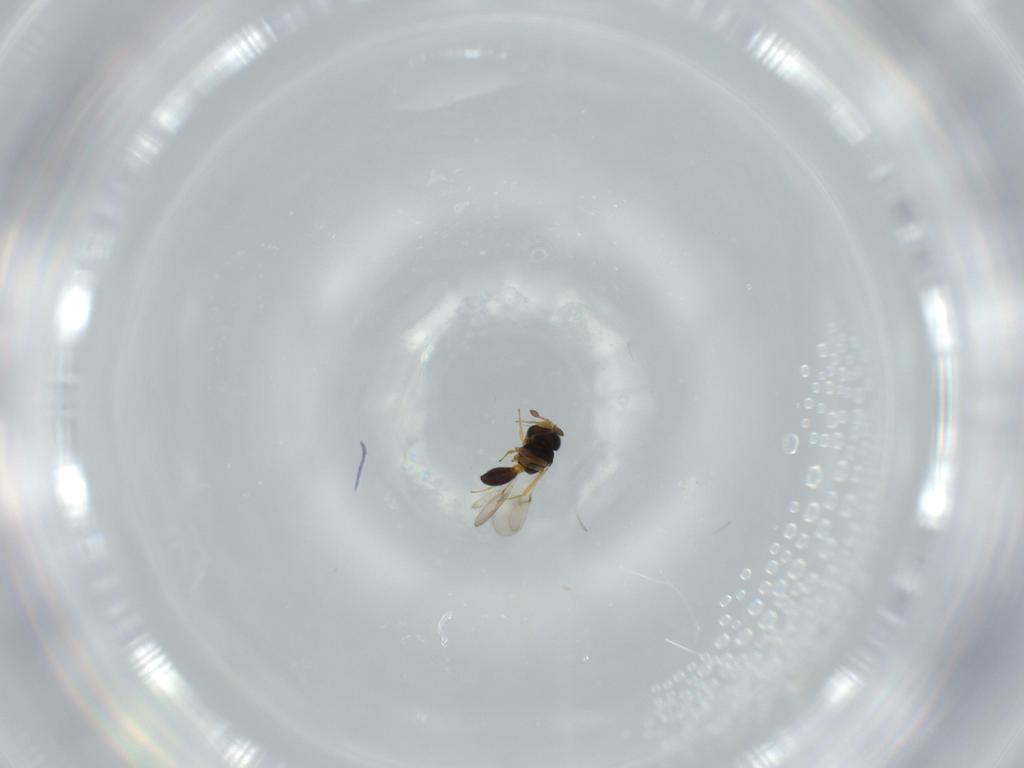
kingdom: Animalia
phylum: Arthropoda
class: Insecta
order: Hymenoptera
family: Scelionidae
